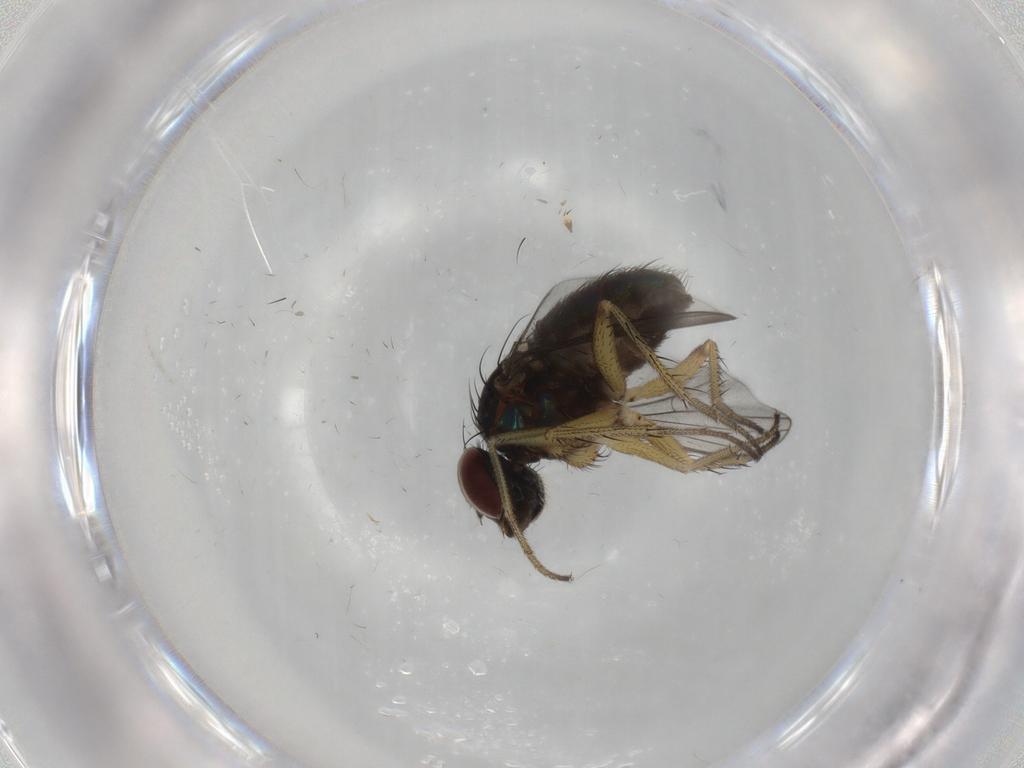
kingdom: Animalia
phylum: Arthropoda
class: Insecta
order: Diptera
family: Dolichopodidae
